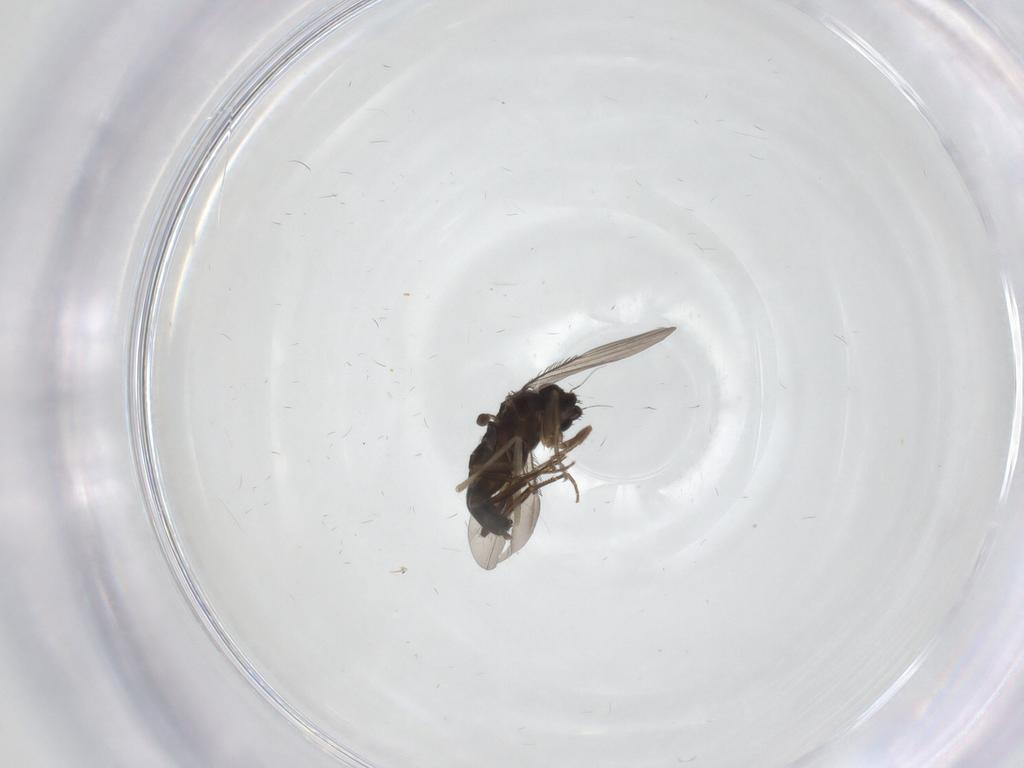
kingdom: Animalia
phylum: Arthropoda
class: Insecta
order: Diptera
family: Phoridae
